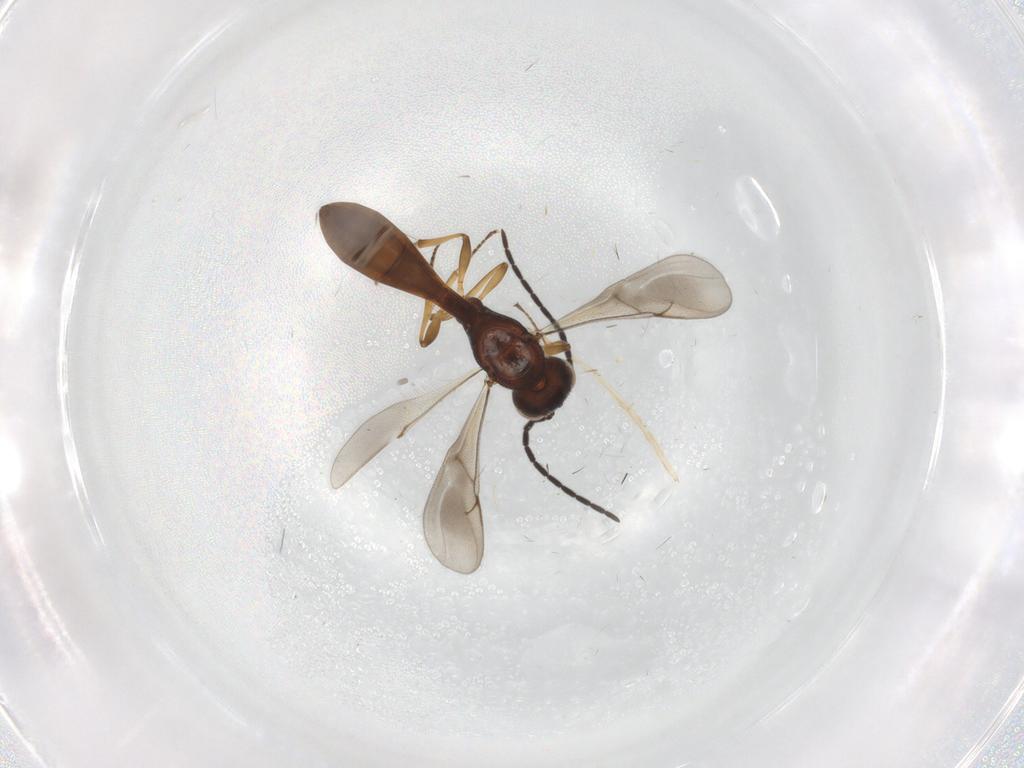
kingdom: Animalia
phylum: Arthropoda
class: Insecta
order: Hymenoptera
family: Scelionidae
